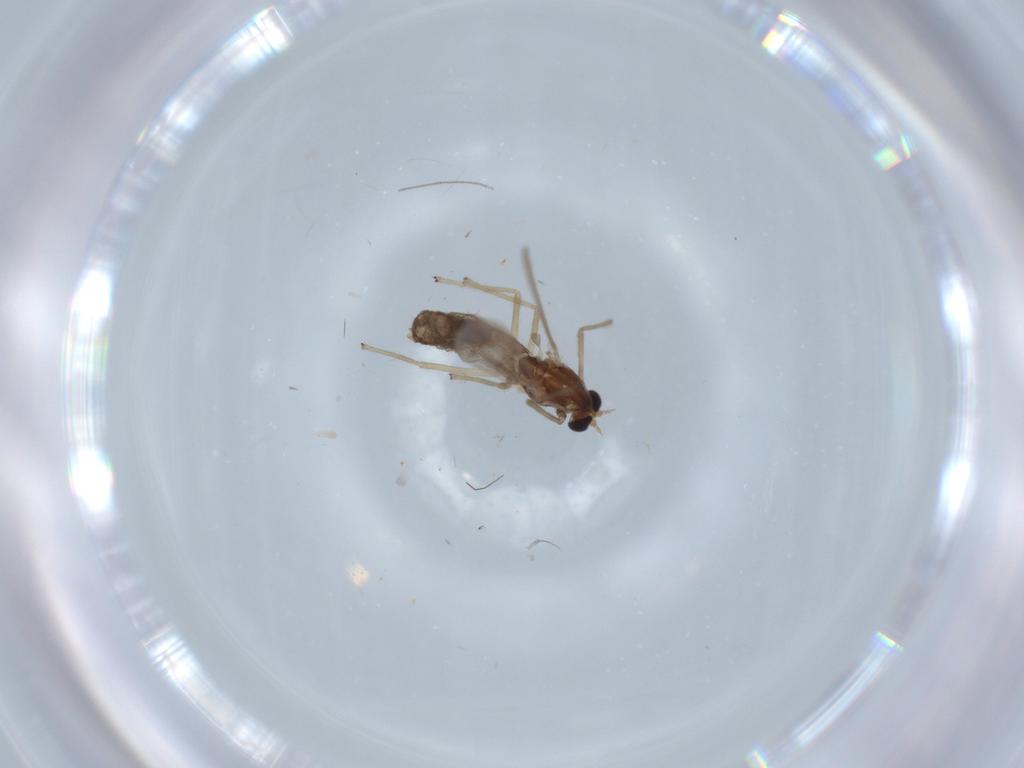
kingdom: Animalia
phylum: Arthropoda
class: Insecta
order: Diptera
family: Chironomidae
